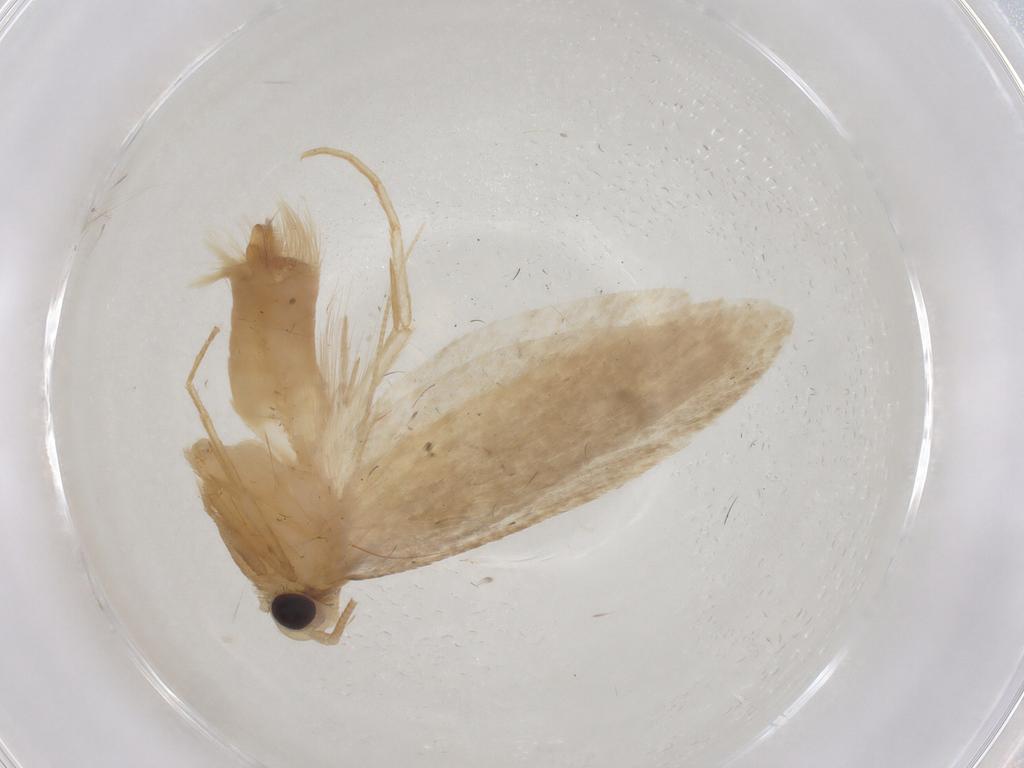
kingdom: Animalia
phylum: Arthropoda
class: Insecta
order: Lepidoptera
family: Tineidae
